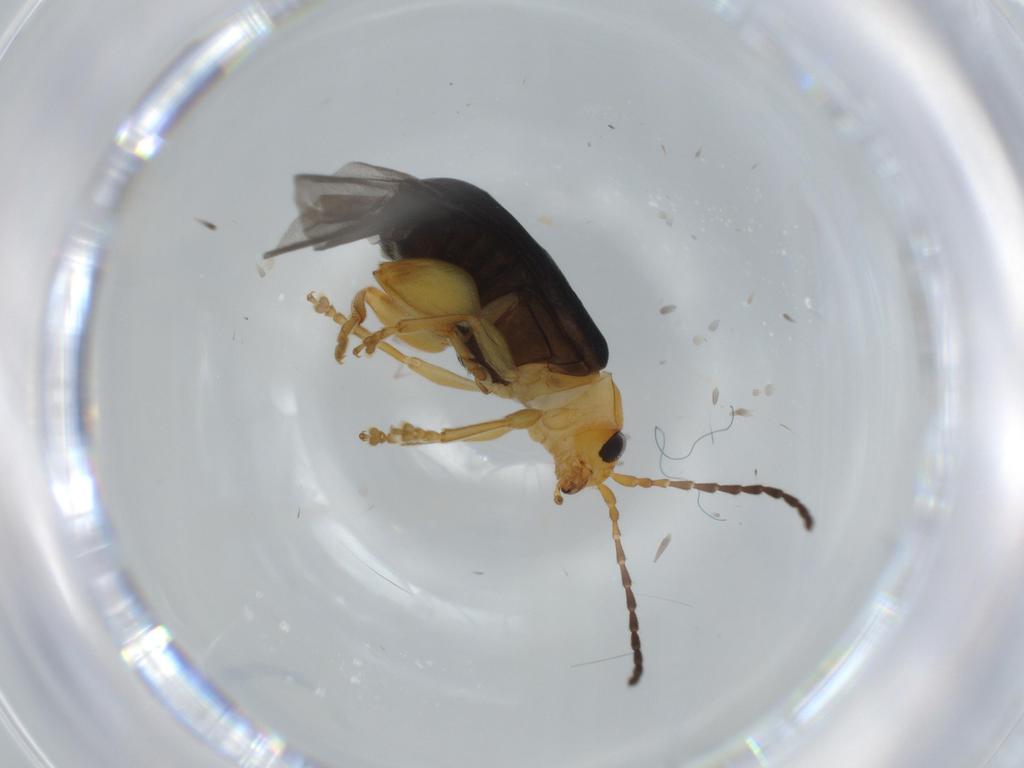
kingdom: Animalia
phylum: Arthropoda
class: Insecta
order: Coleoptera
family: Chrysomelidae
